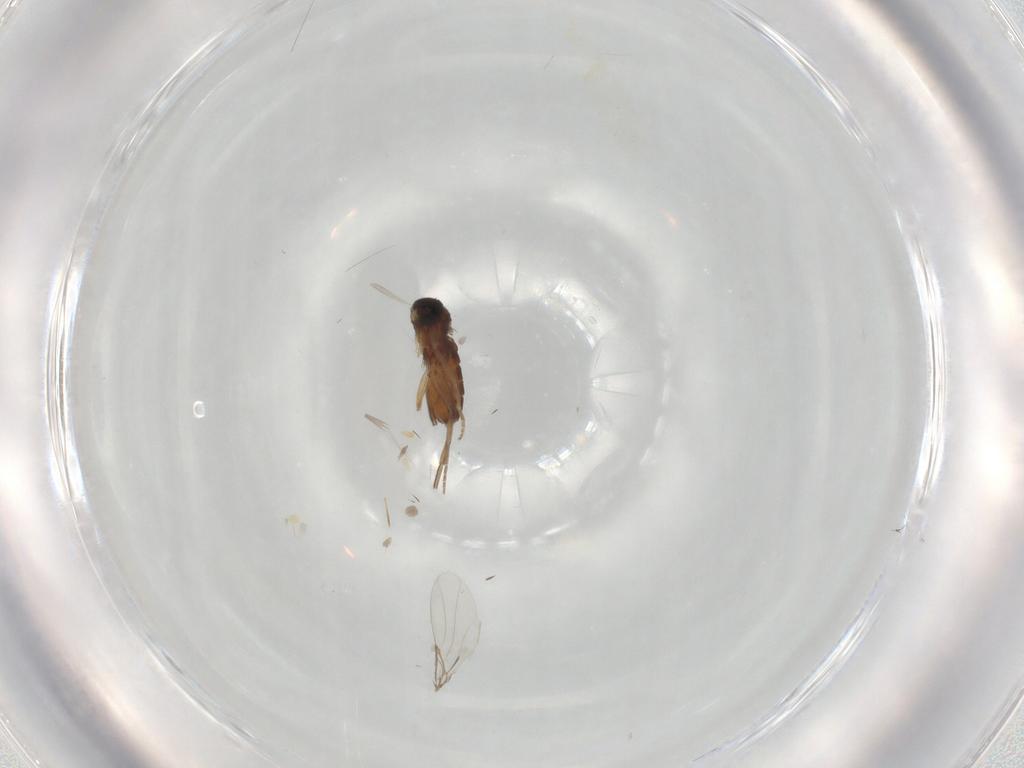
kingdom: Animalia
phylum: Arthropoda
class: Insecta
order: Diptera
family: Phoridae
